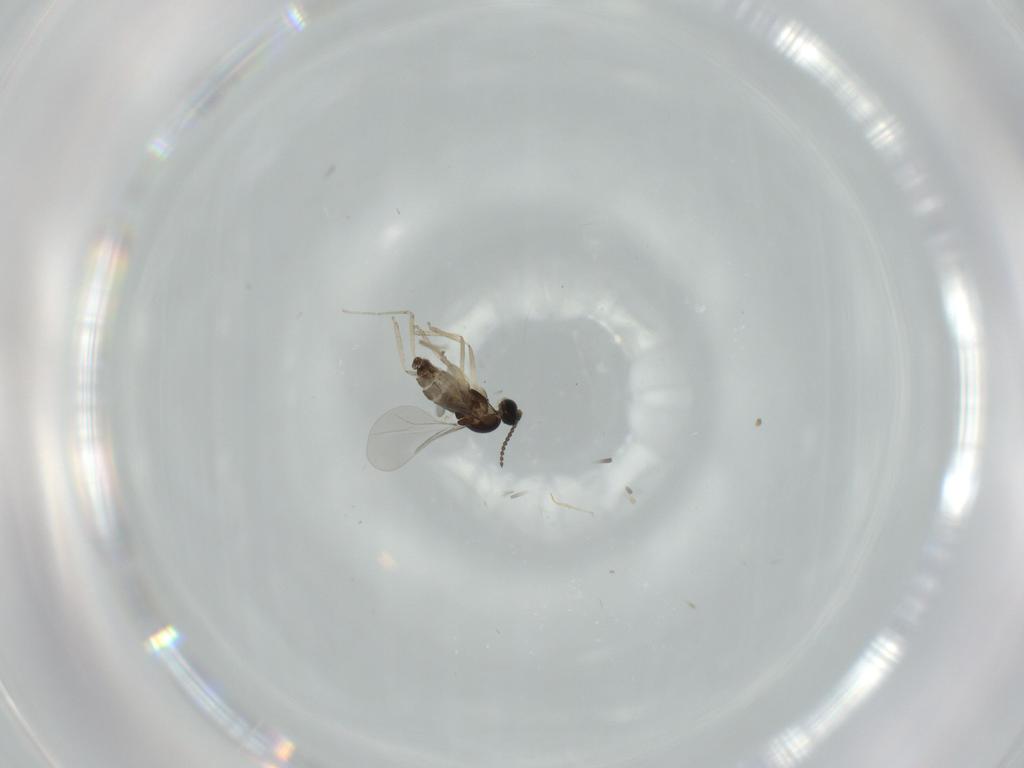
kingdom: Animalia
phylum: Arthropoda
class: Insecta
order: Diptera
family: Cecidomyiidae
